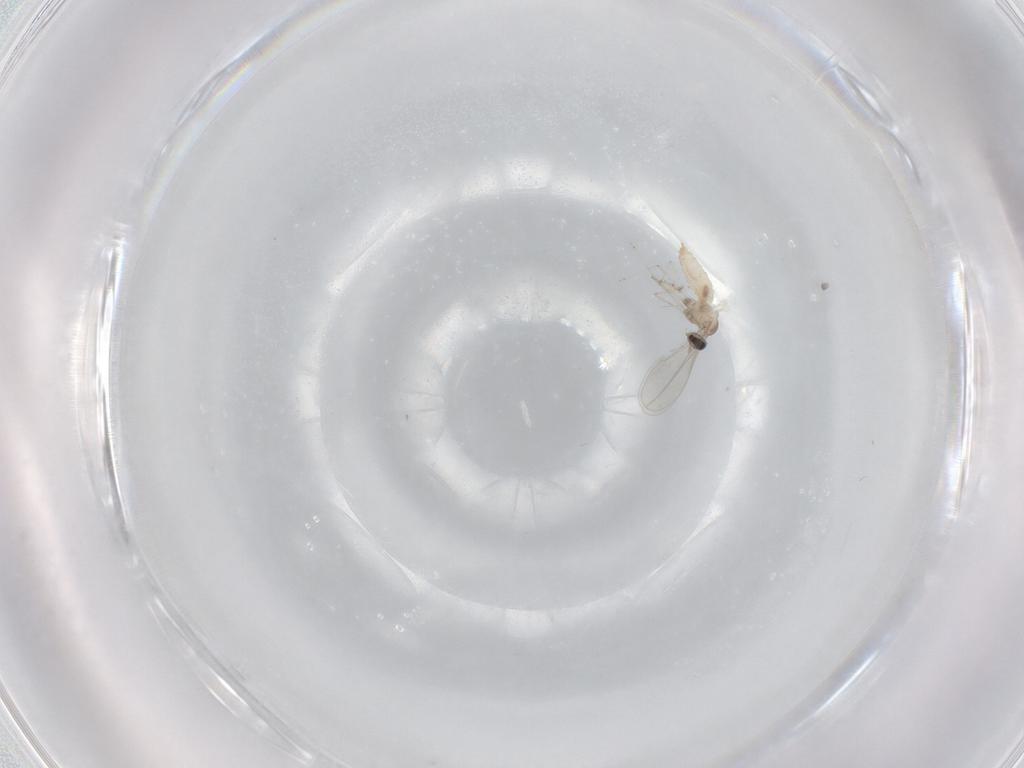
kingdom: Animalia
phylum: Arthropoda
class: Insecta
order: Diptera
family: Cecidomyiidae
